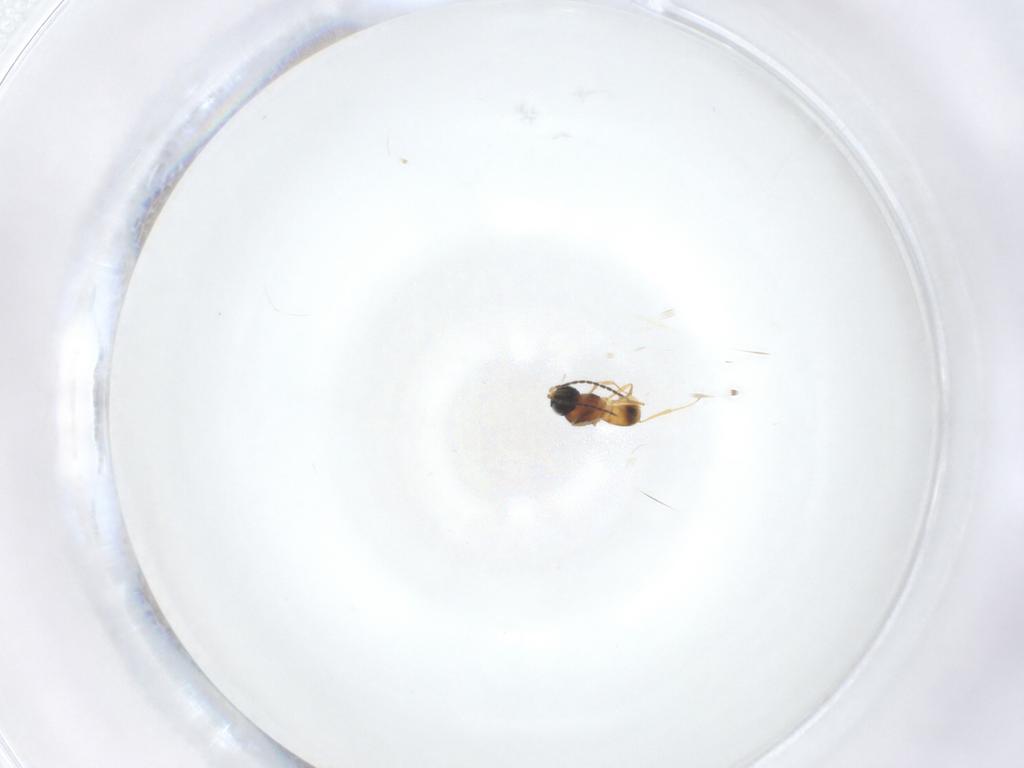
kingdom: Animalia
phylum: Arthropoda
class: Insecta
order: Hymenoptera
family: Scelionidae
